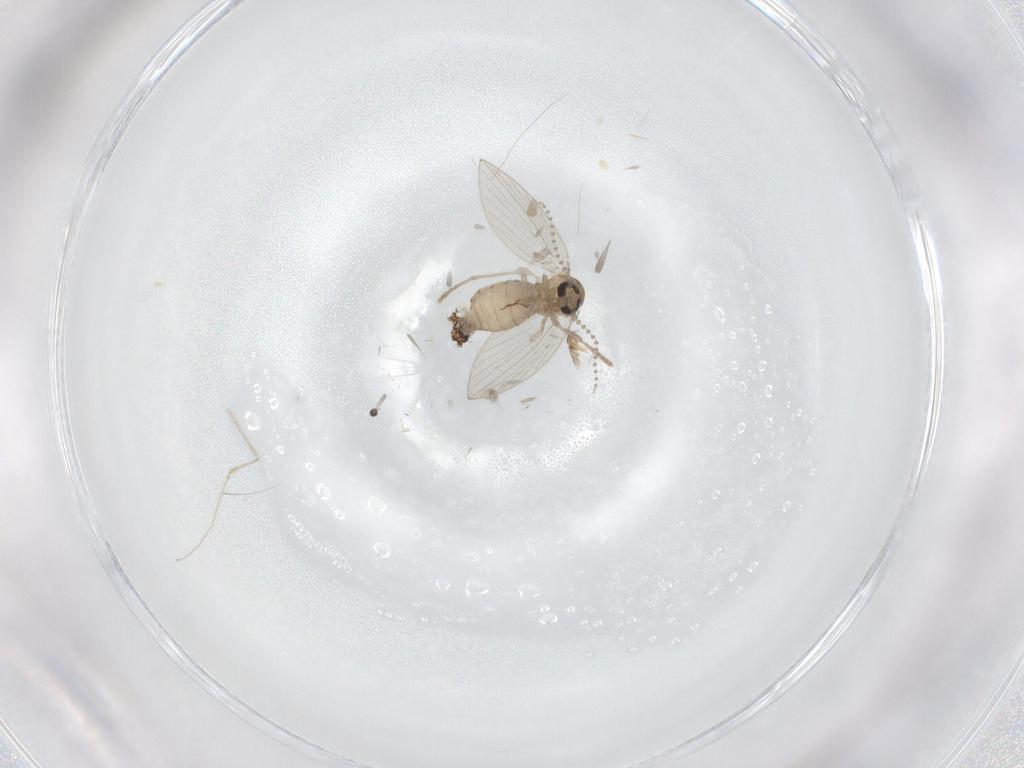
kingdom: Animalia
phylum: Arthropoda
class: Insecta
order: Diptera
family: Psychodidae
